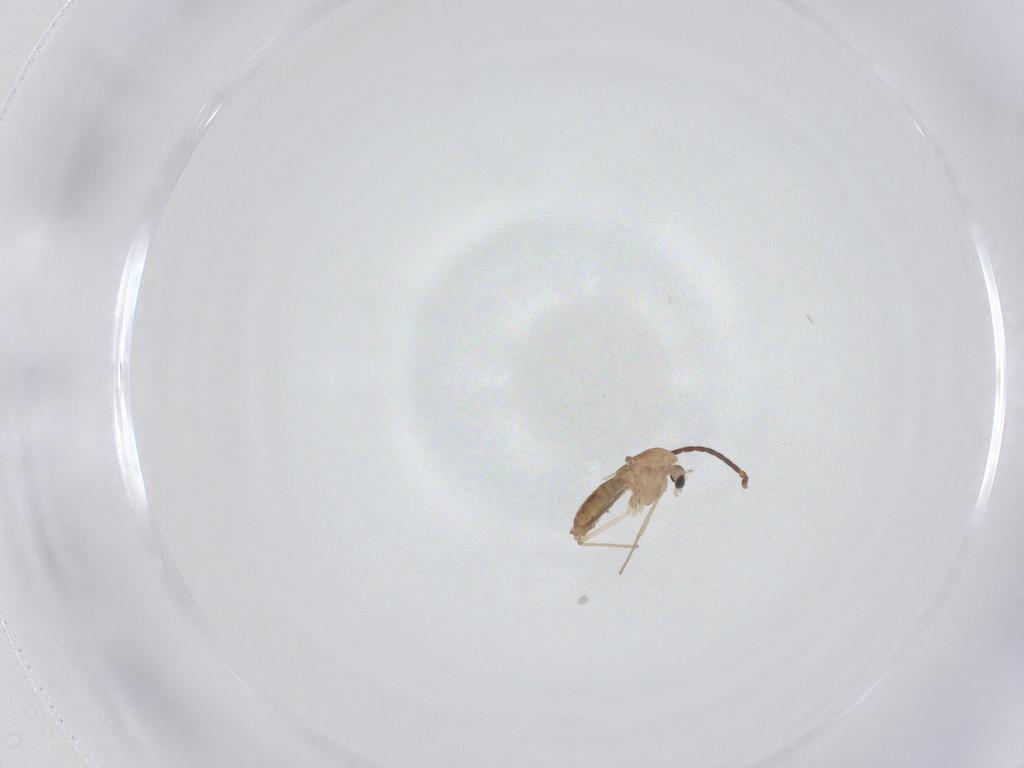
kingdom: Animalia
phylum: Arthropoda
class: Insecta
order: Diptera
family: Chironomidae
